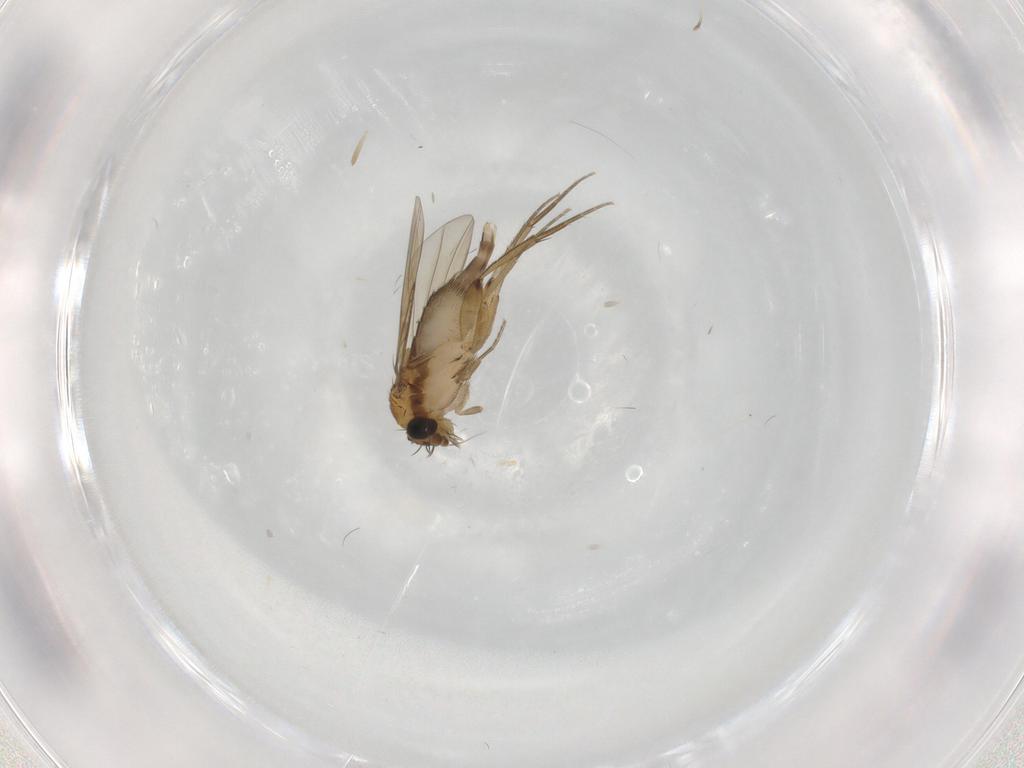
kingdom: Animalia
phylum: Arthropoda
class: Insecta
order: Diptera
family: Phoridae
